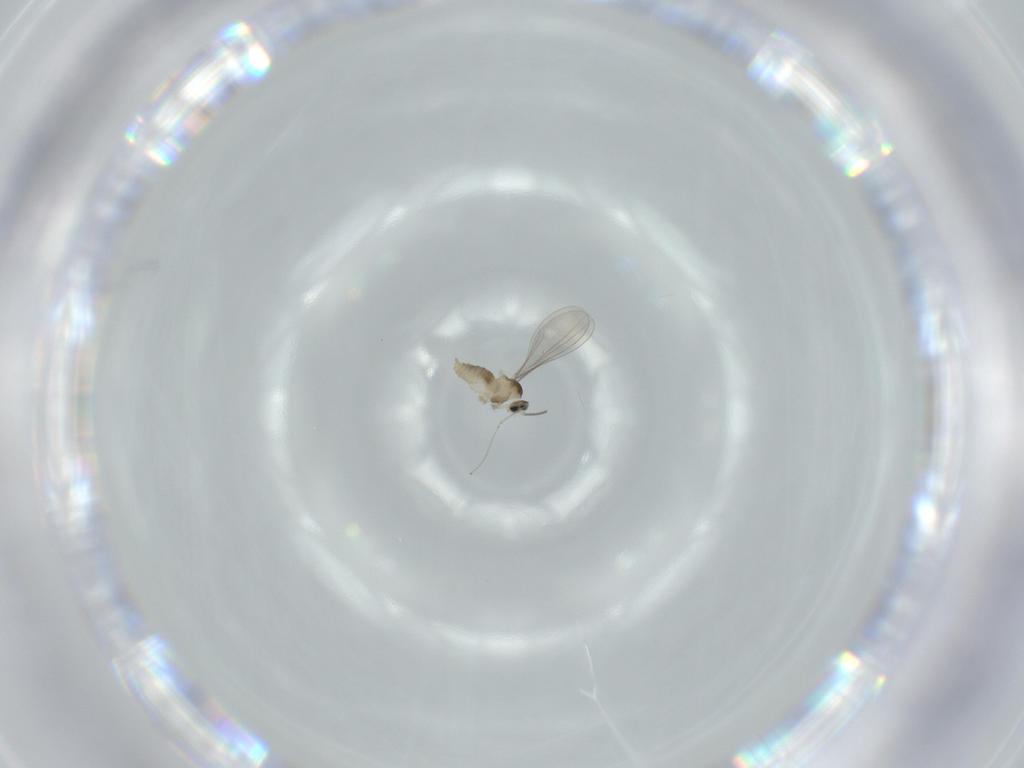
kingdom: Animalia
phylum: Arthropoda
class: Insecta
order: Diptera
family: Cecidomyiidae
